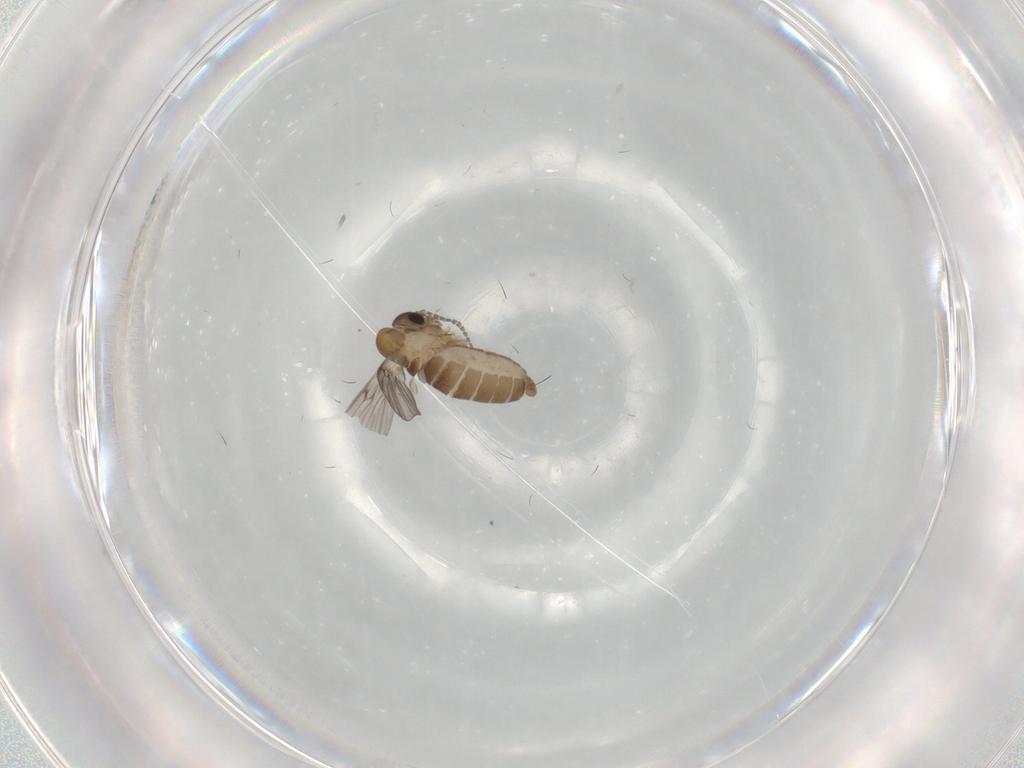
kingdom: Animalia
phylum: Arthropoda
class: Insecta
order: Diptera
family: Psychodidae
